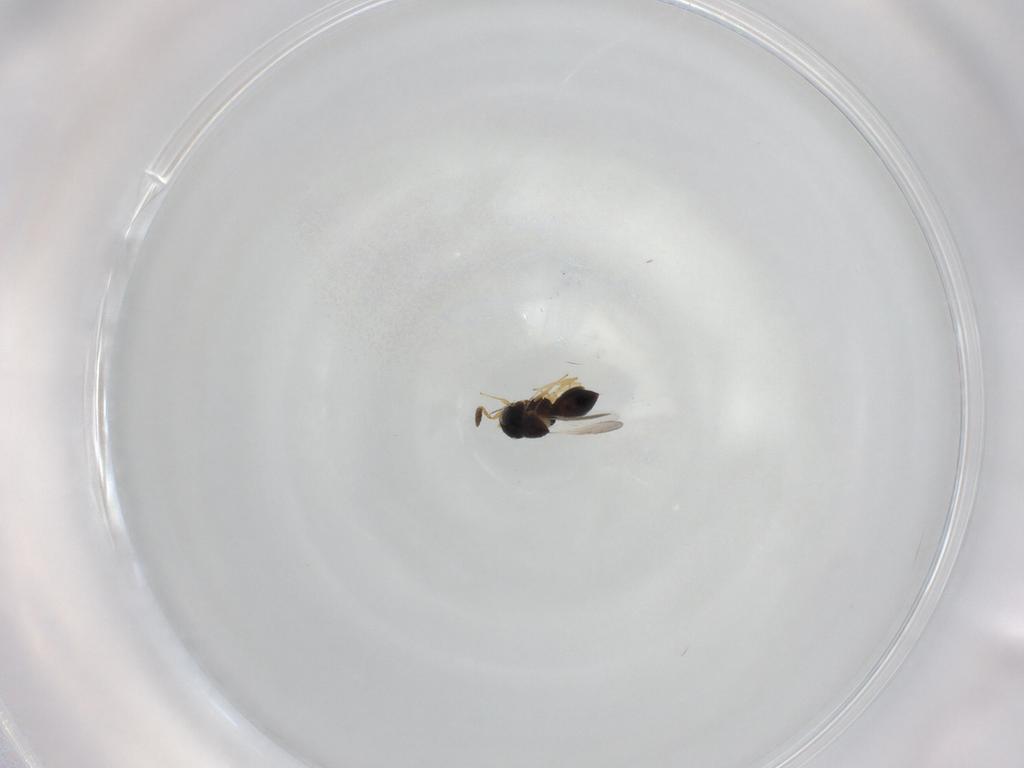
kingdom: Animalia
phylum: Arthropoda
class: Insecta
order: Hymenoptera
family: Scelionidae
